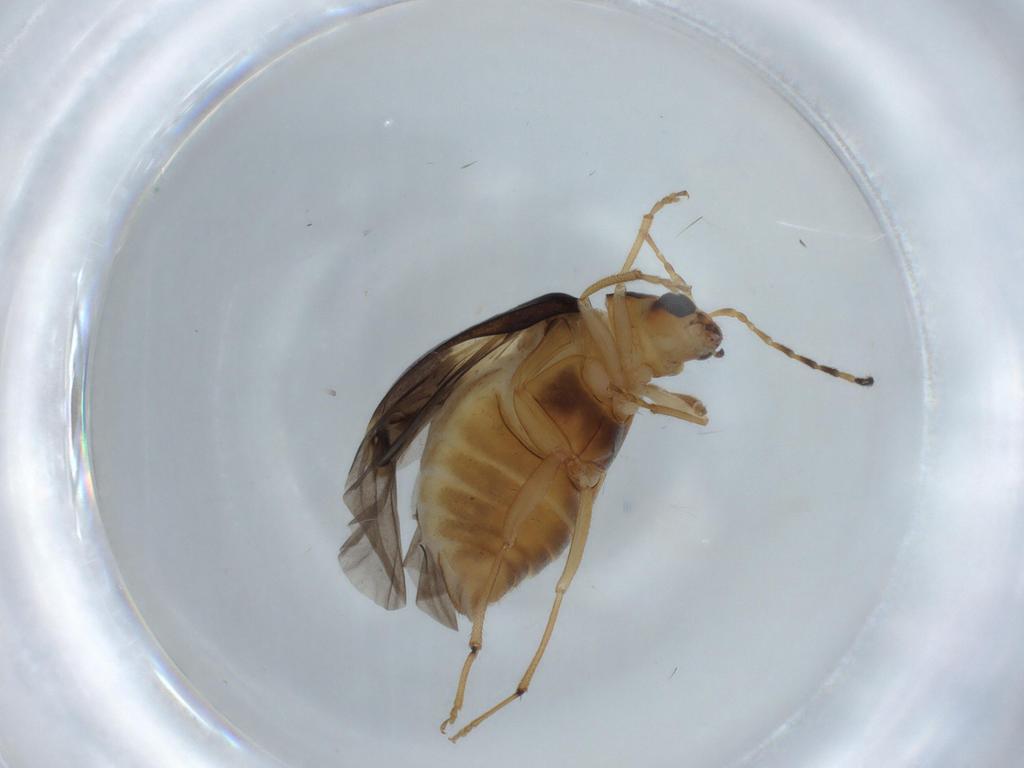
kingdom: Animalia
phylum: Arthropoda
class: Insecta
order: Coleoptera
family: Chrysomelidae
